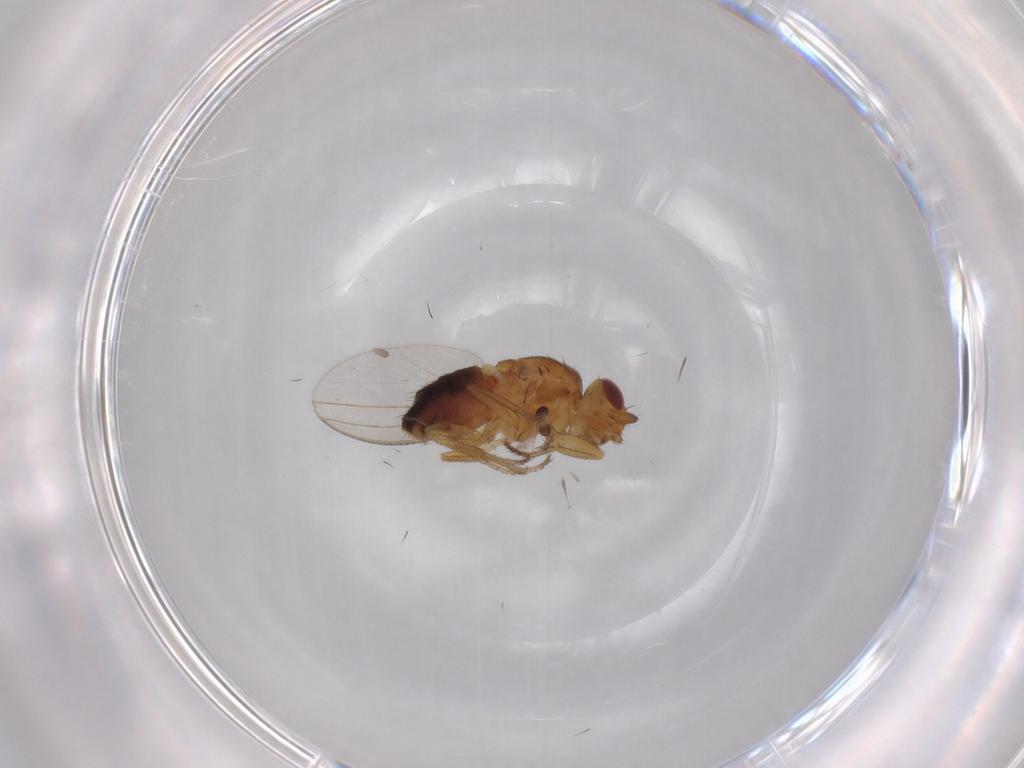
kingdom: Animalia
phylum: Arthropoda
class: Insecta
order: Diptera
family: Milichiidae
